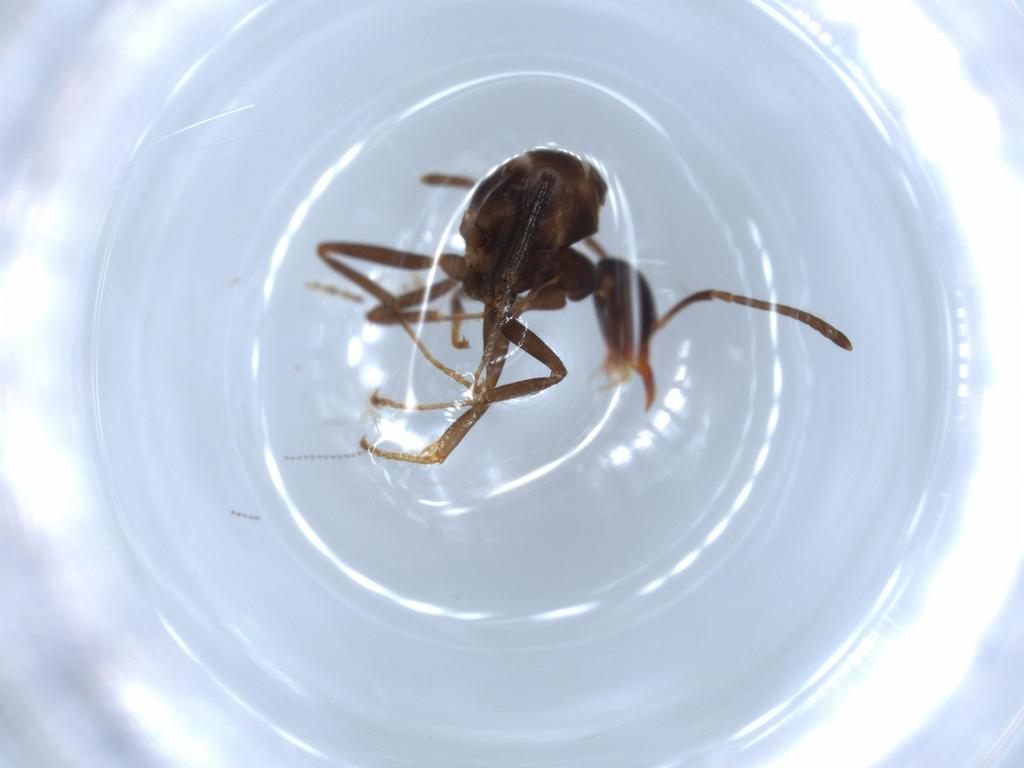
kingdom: Animalia
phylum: Arthropoda
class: Insecta
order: Hymenoptera
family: Formicidae
